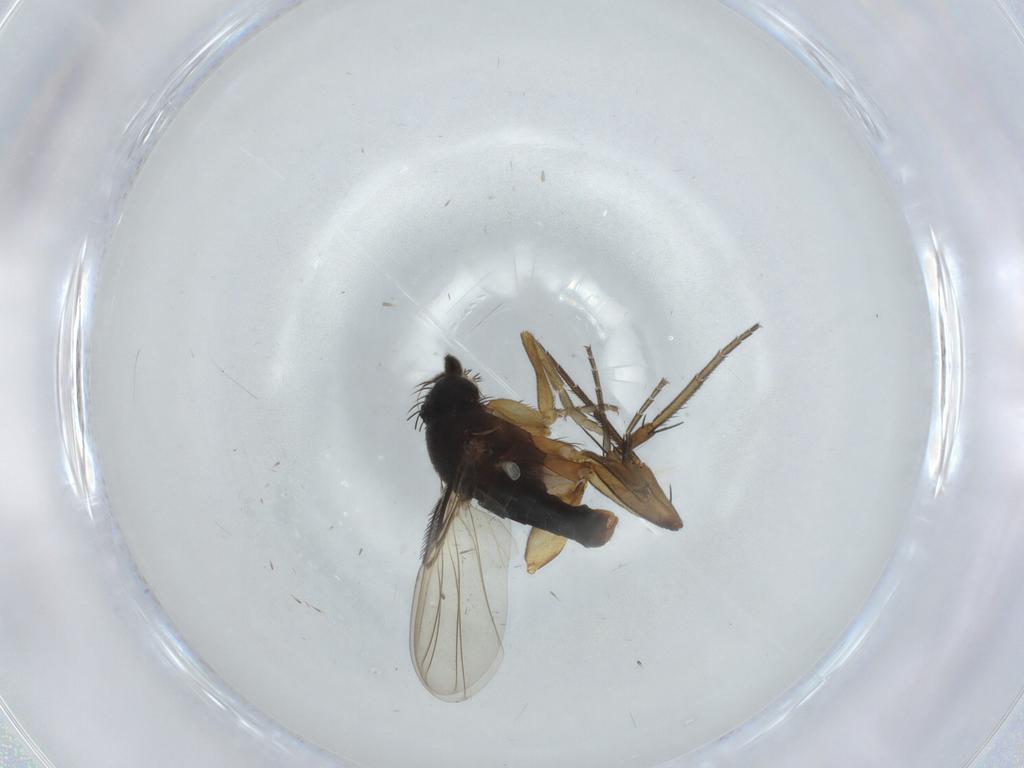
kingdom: Animalia
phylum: Arthropoda
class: Insecta
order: Diptera
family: Phoridae
